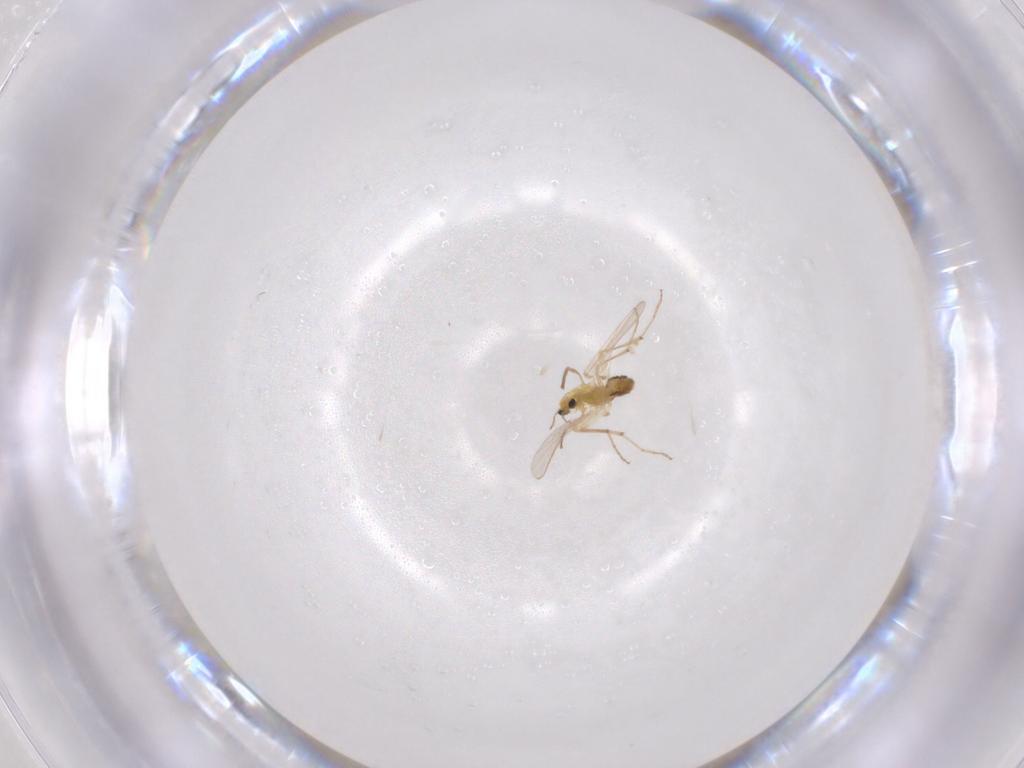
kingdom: Animalia
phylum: Arthropoda
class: Insecta
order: Diptera
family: Chironomidae
